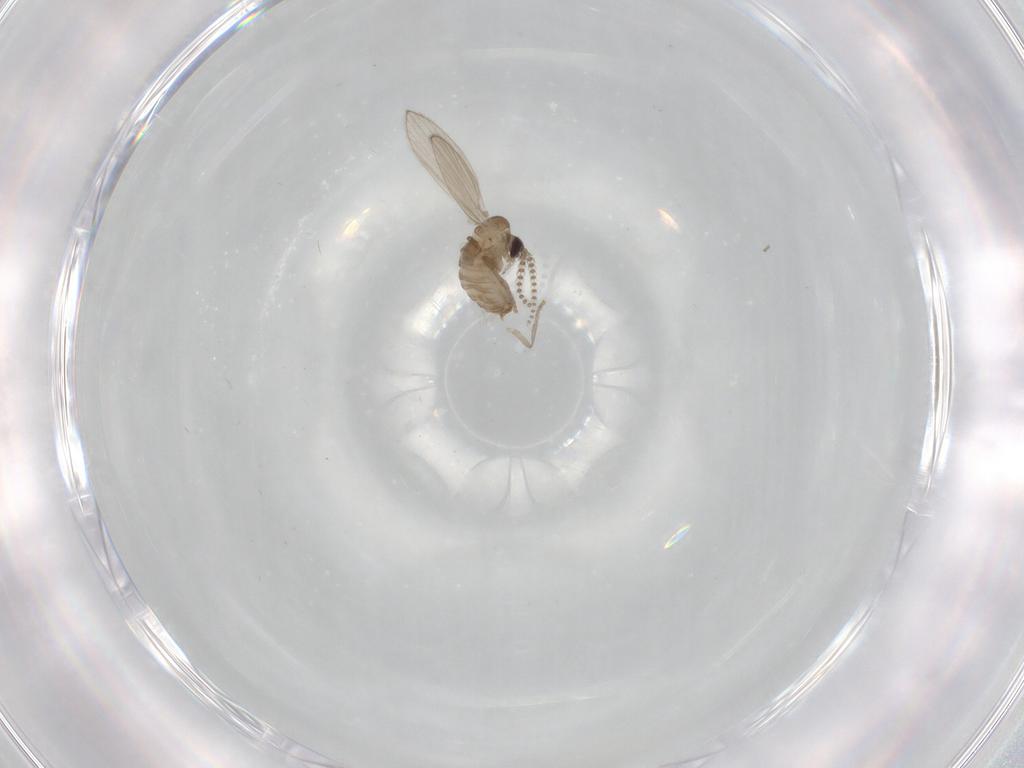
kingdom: Animalia
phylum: Arthropoda
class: Insecta
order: Diptera
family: Psychodidae
